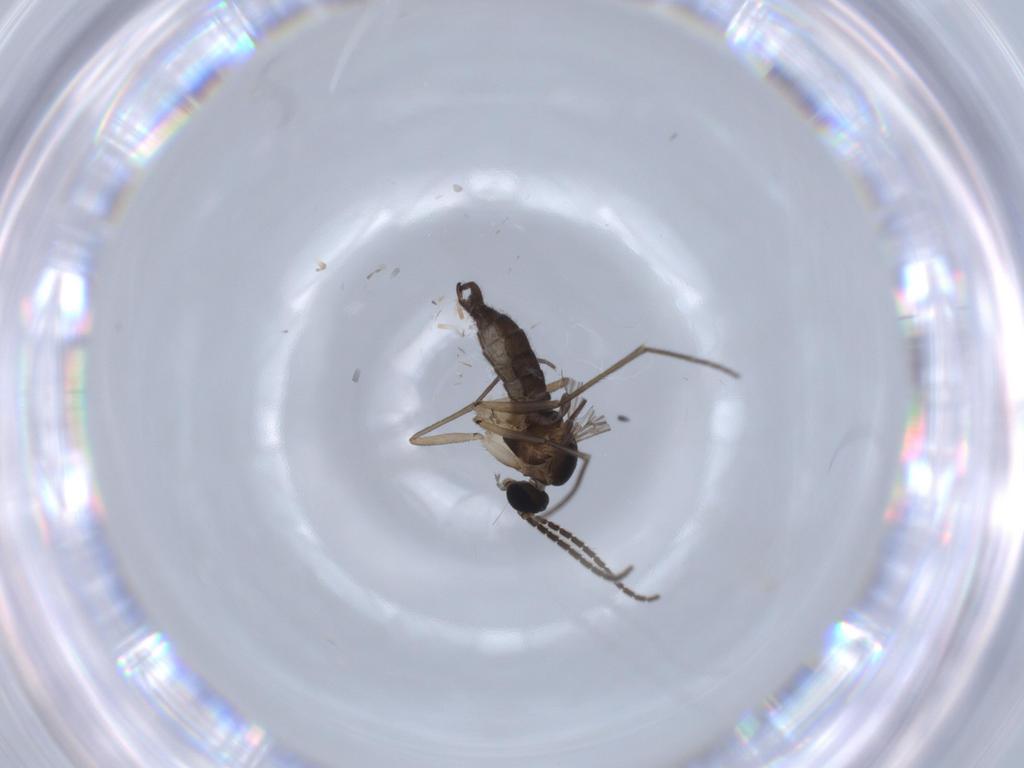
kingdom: Animalia
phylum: Arthropoda
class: Insecta
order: Diptera
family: Sciaridae
